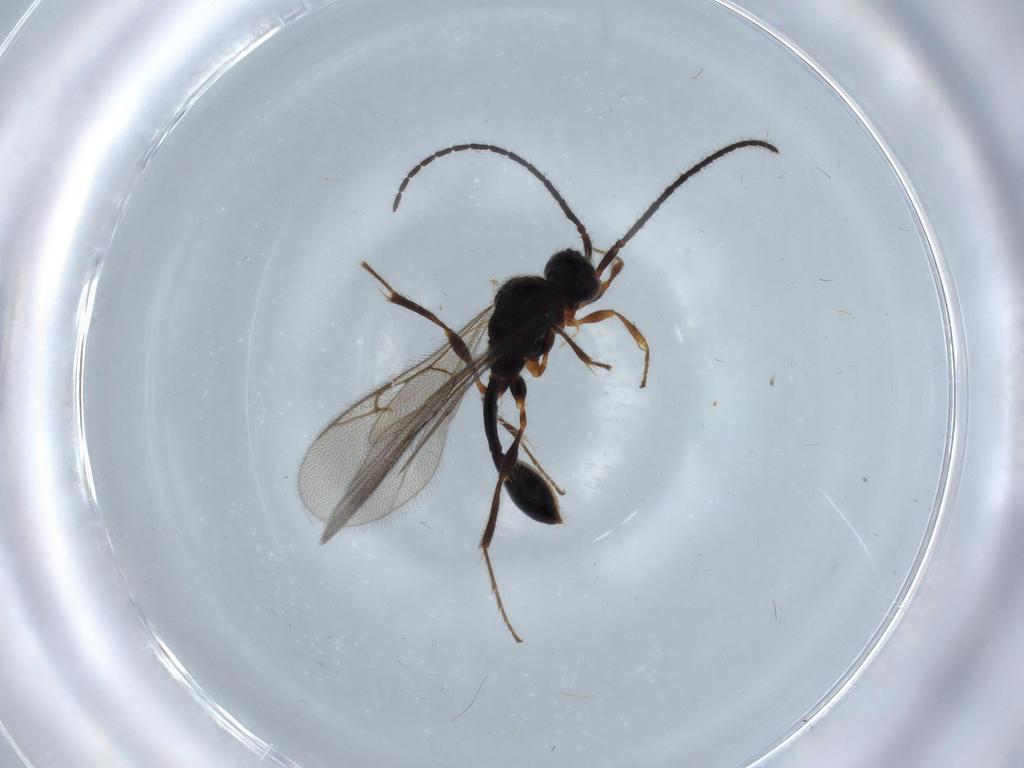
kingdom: Animalia
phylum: Arthropoda
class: Insecta
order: Hymenoptera
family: Diapriidae
